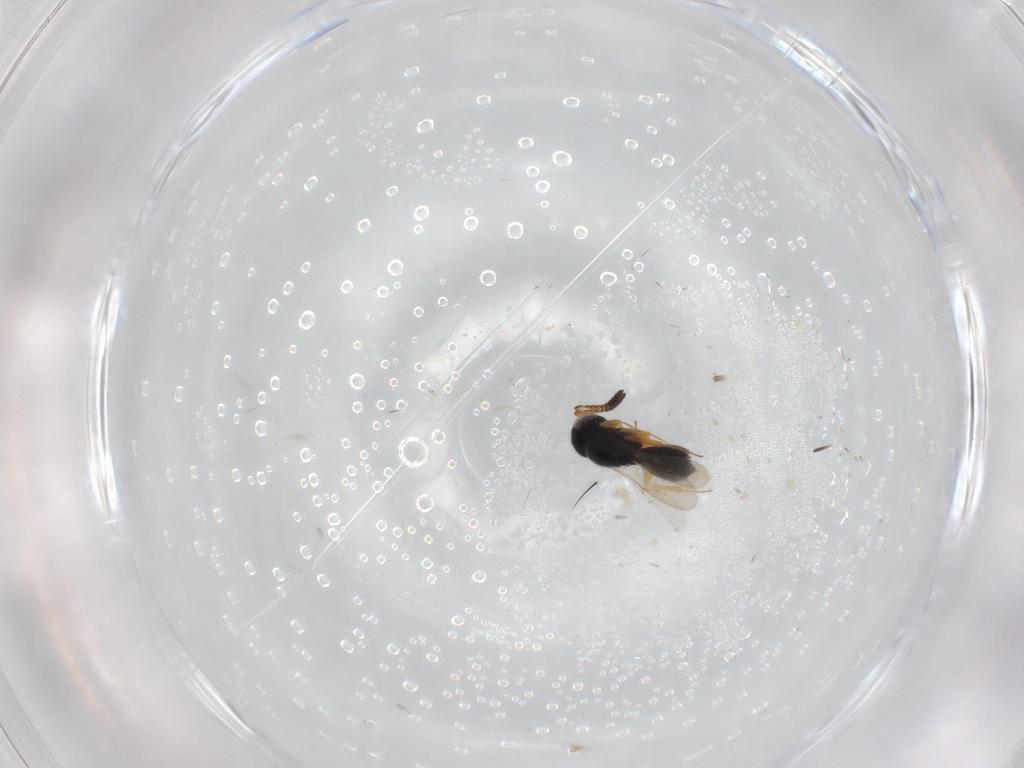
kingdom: Animalia
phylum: Arthropoda
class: Insecta
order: Hymenoptera
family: Scelionidae
